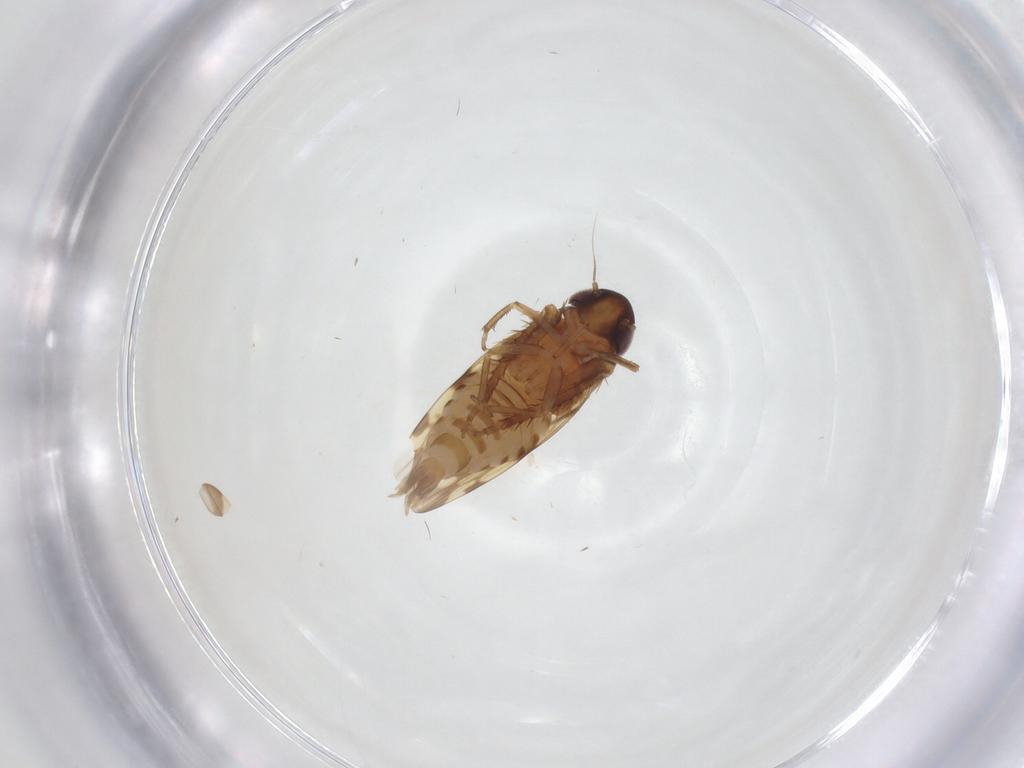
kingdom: Animalia
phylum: Arthropoda
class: Insecta
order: Hemiptera
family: Cicadellidae
